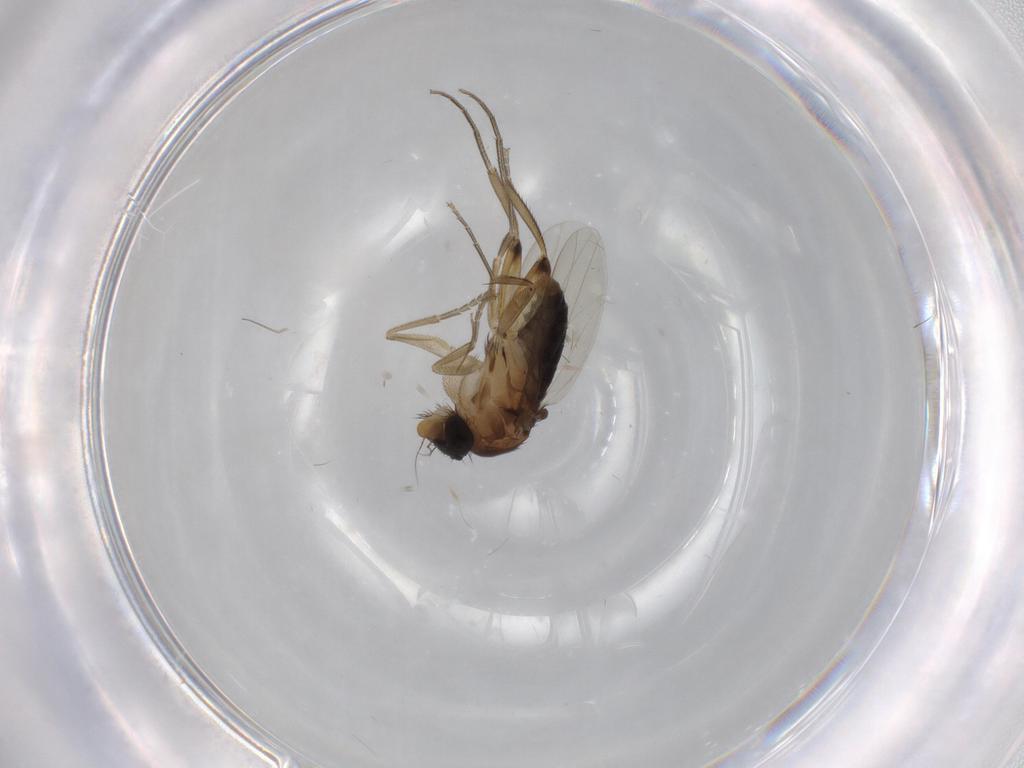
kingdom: Animalia
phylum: Arthropoda
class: Insecta
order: Diptera
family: Phoridae
